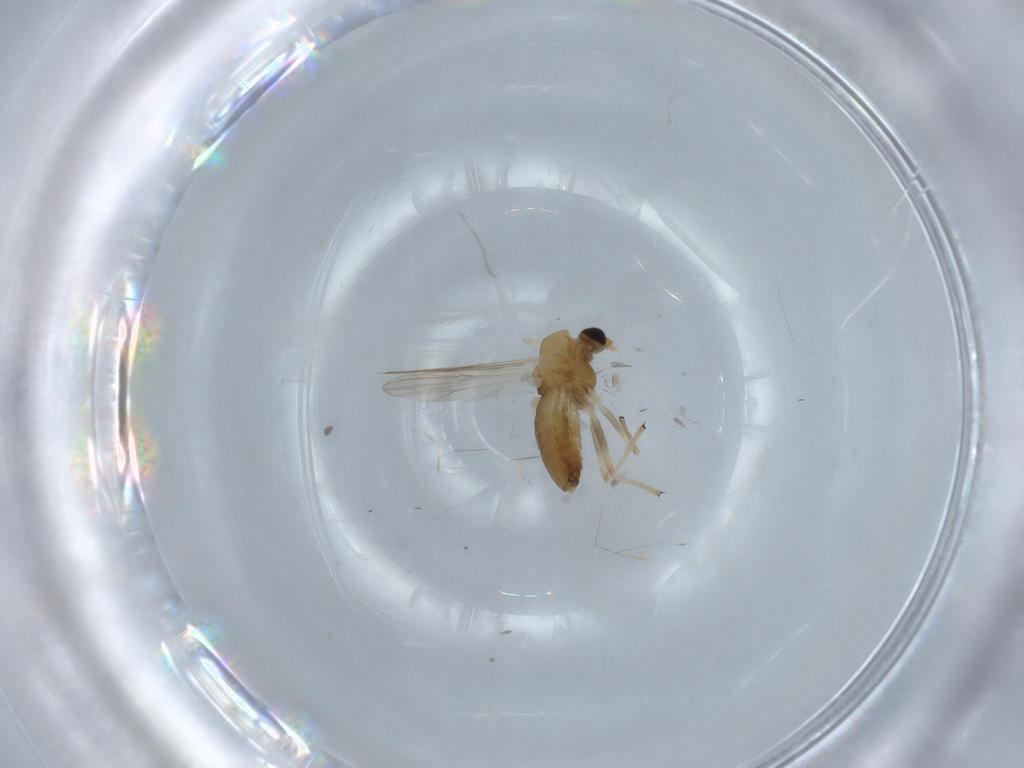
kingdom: Animalia
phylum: Arthropoda
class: Insecta
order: Diptera
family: Chironomidae
